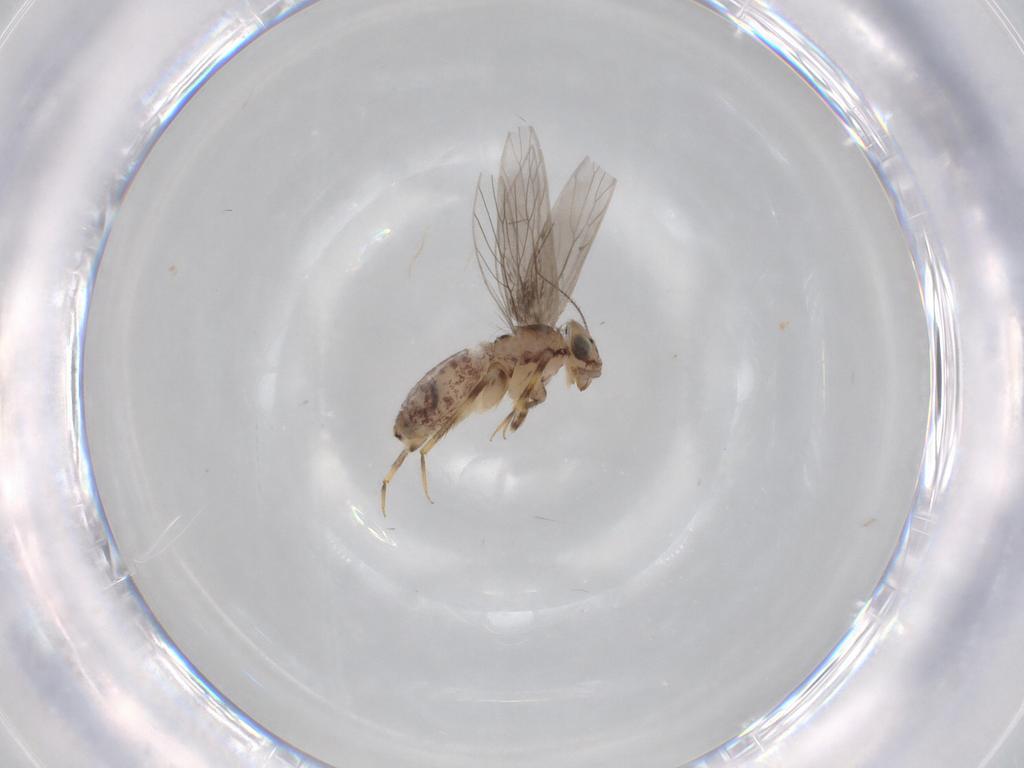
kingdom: Animalia
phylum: Arthropoda
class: Insecta
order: Psocodea
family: Lepidopsocidae
